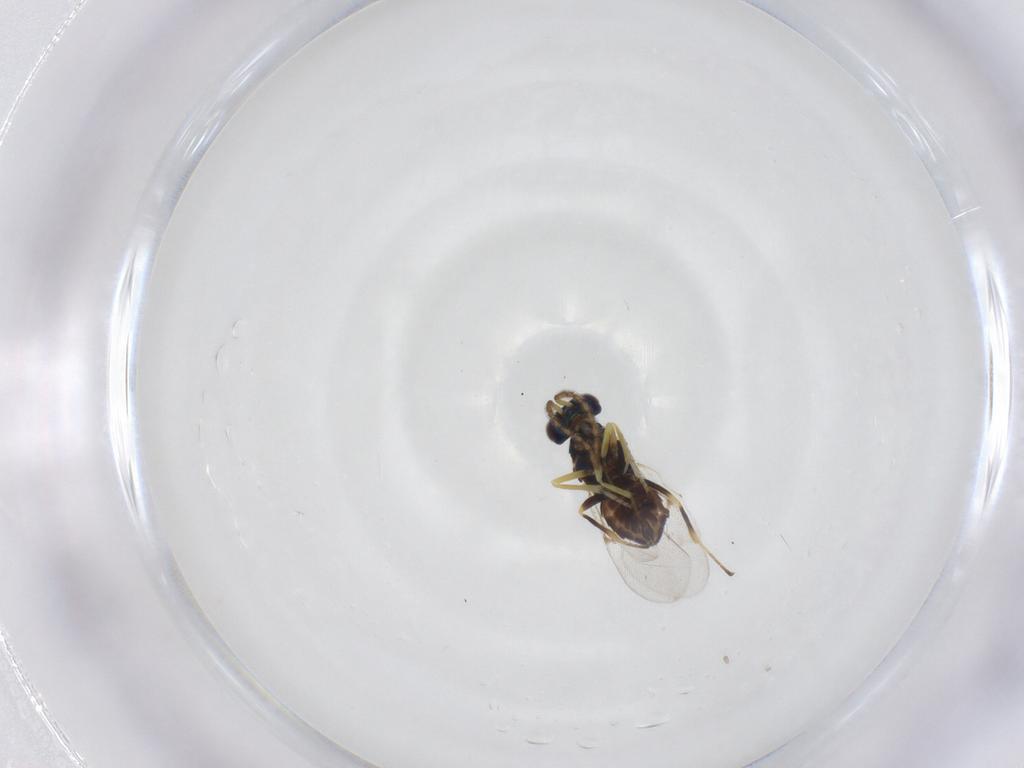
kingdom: Animalia
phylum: Arthropoda
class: Insecta
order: Hymenoptera
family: Encyrtidae
